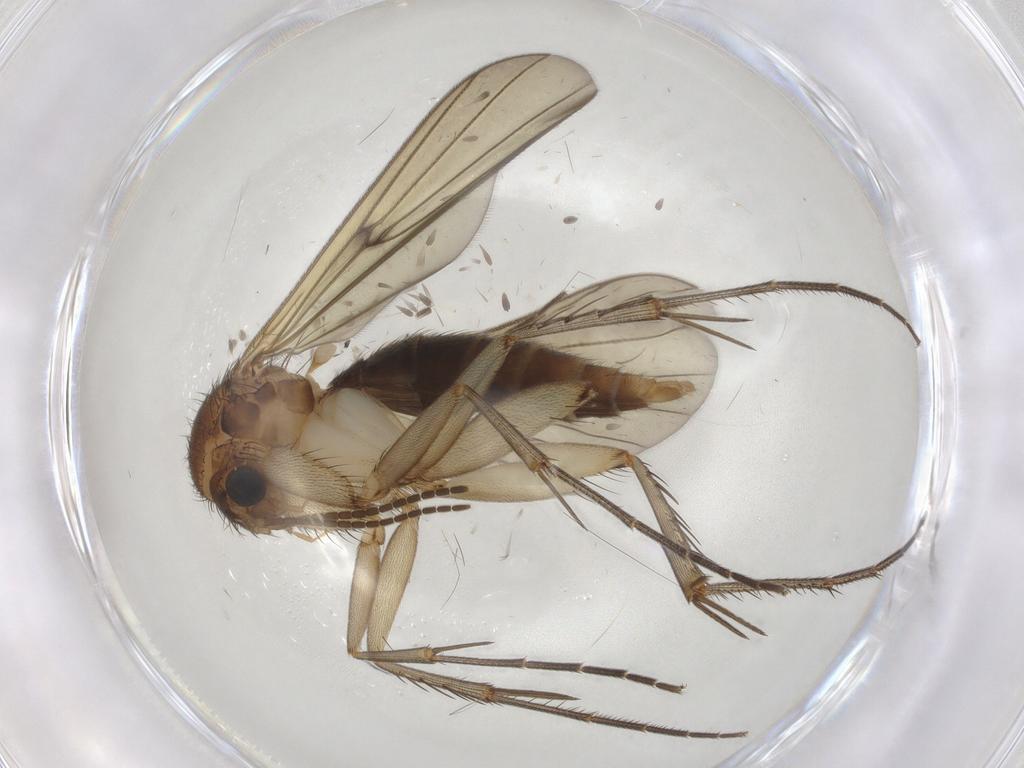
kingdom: Animalia
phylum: Arthropoda
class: Insecta
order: Diptera
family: Mycetophilidae
